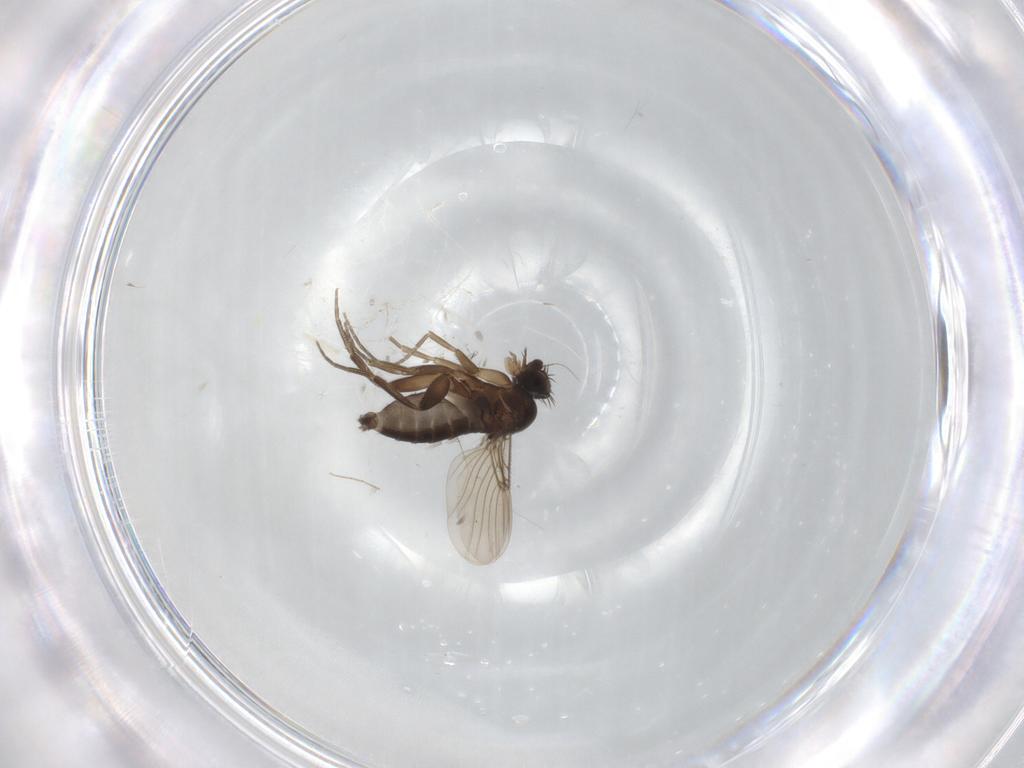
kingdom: Animalia
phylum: Arthropoda
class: Insecta
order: Diptera
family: Phoridae
